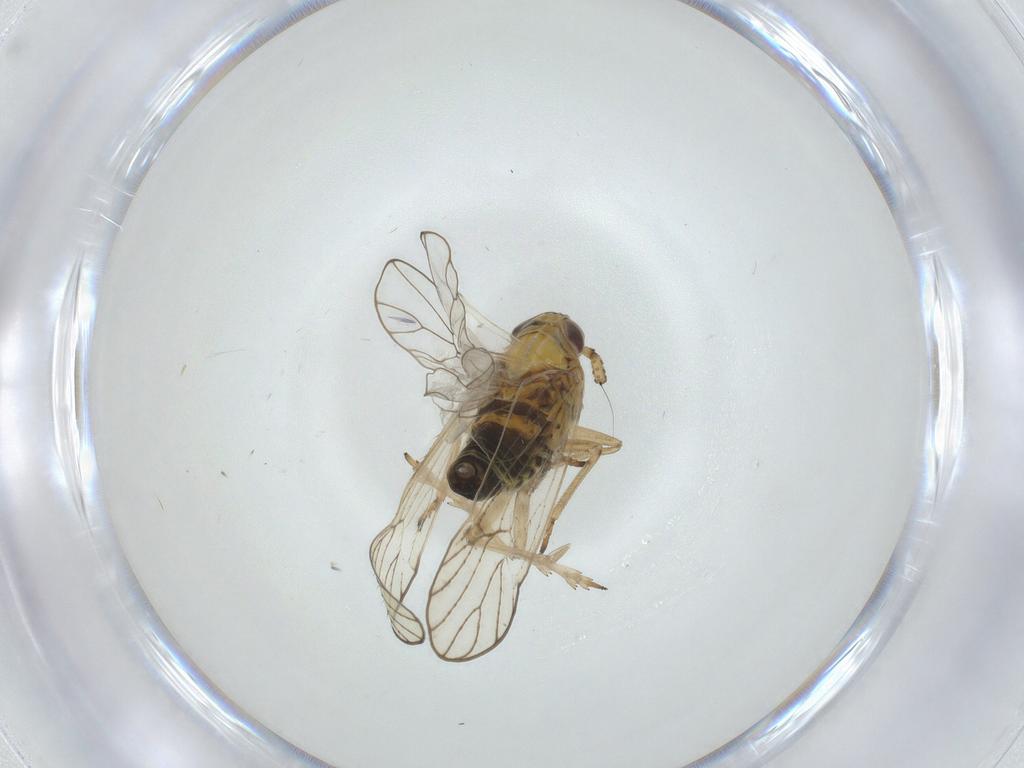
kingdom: Animalia
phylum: Arthropoda
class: Insecta
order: Hemiptera
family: Delphacidae
